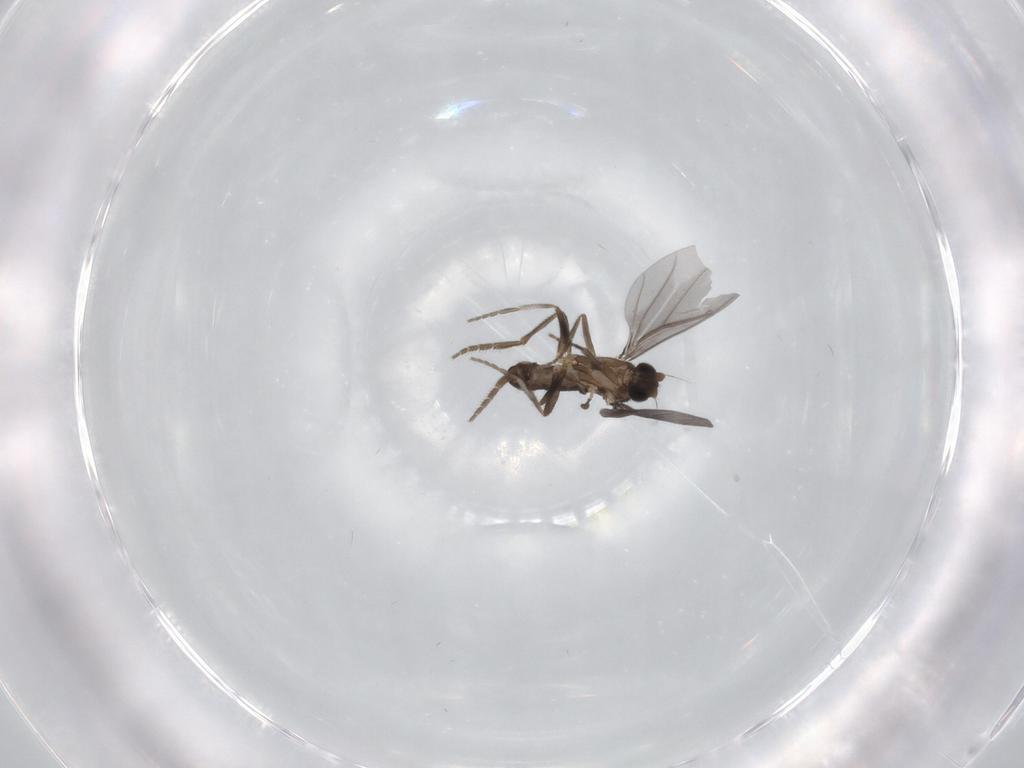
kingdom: Animalia
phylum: Arthropoda
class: Insecta
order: Diptera
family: Phoridae
